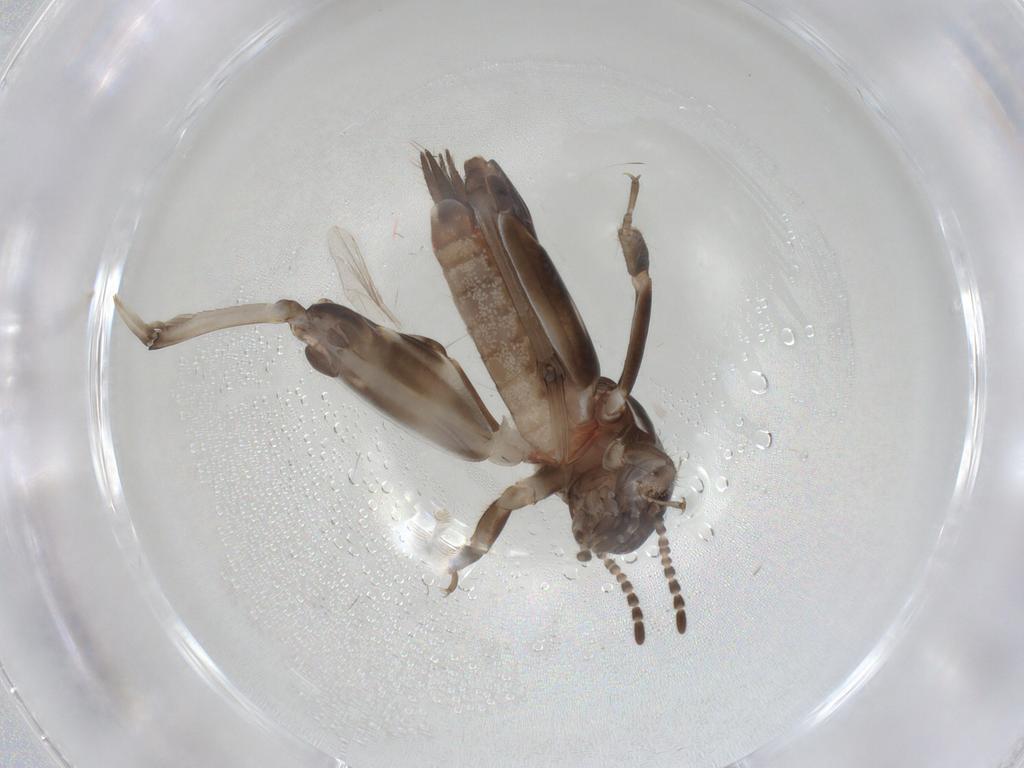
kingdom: Animalia
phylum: Arthropoda
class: Insecta
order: Orthoptera
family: Tridactylidae
